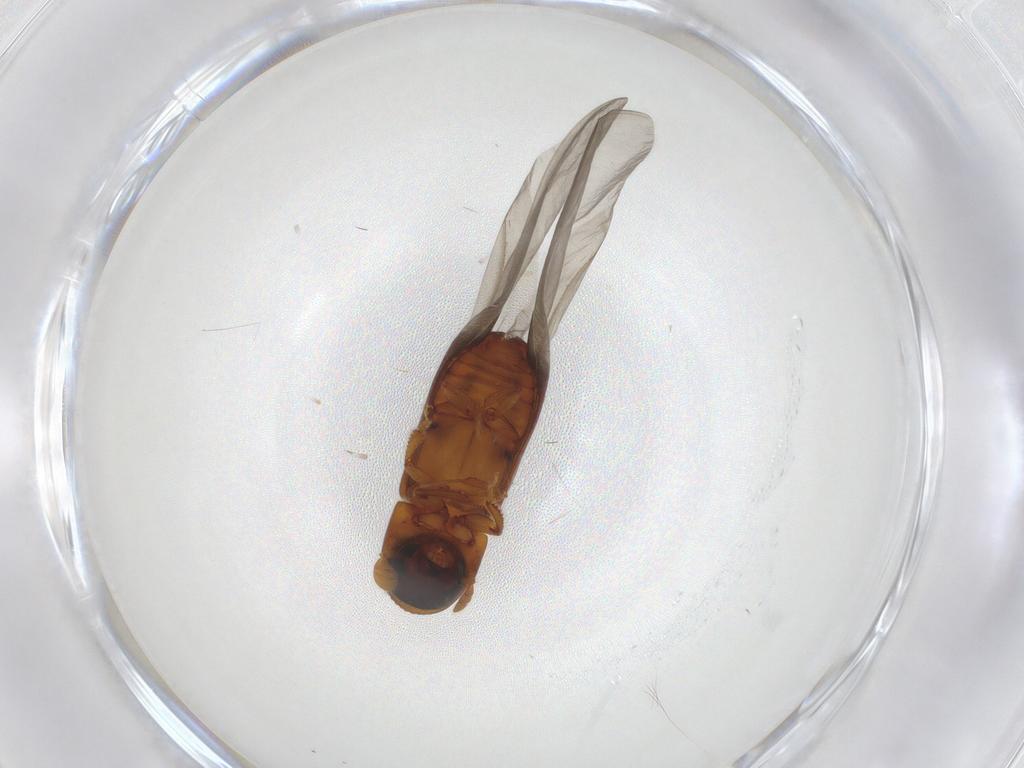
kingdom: Animalia
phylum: Arthropoda
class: Insecta
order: Coleoptera
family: Curculionidae
